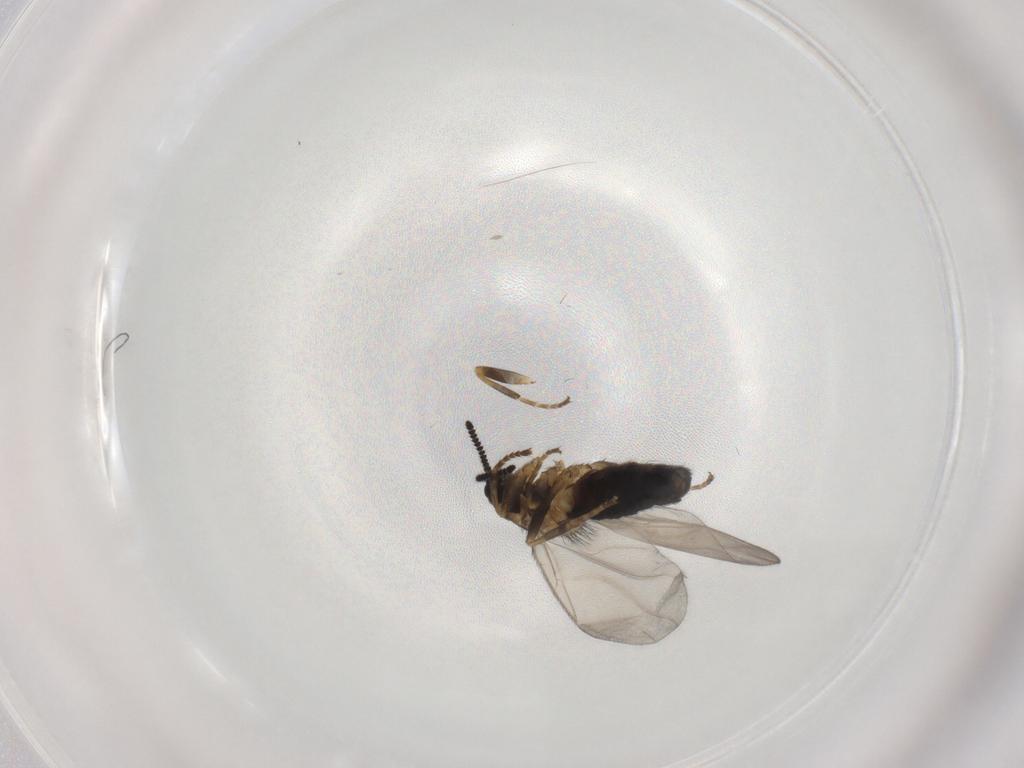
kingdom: Animalia
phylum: Arthropoda
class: Insecta
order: Diptera
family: Scatopsidae
